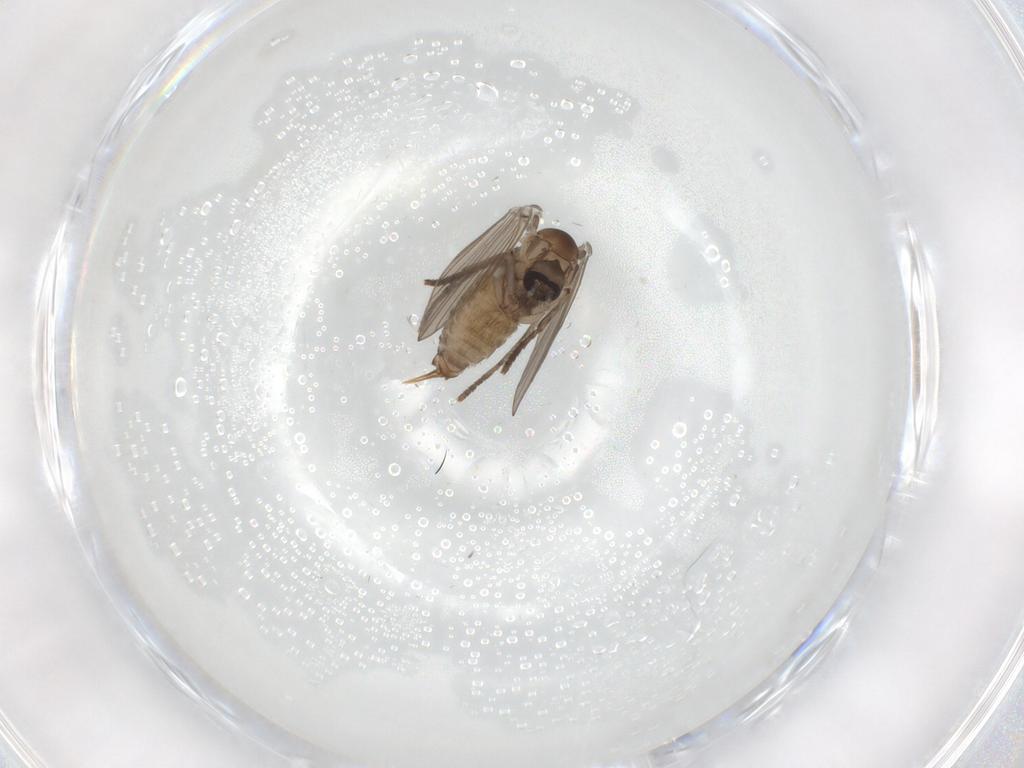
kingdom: Animalia
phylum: Arthropoda
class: Insecta
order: Diptera
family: Psychodidae
